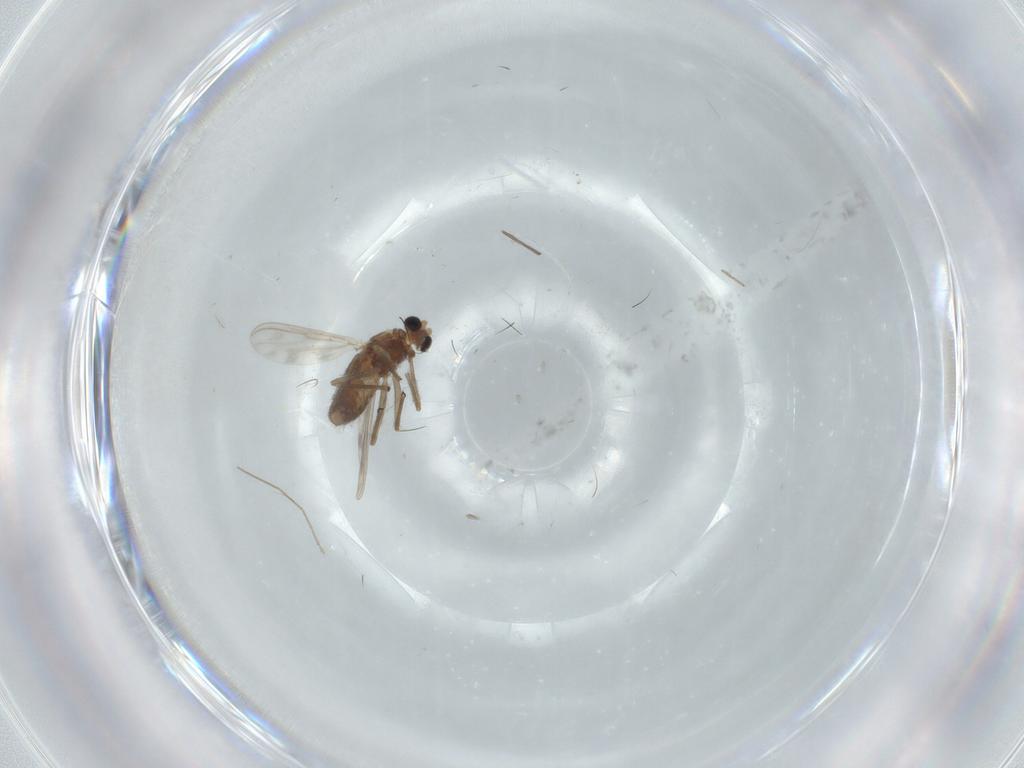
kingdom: Animalia
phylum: Arthropoda
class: Insecta
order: Diptera
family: Chironomidae
